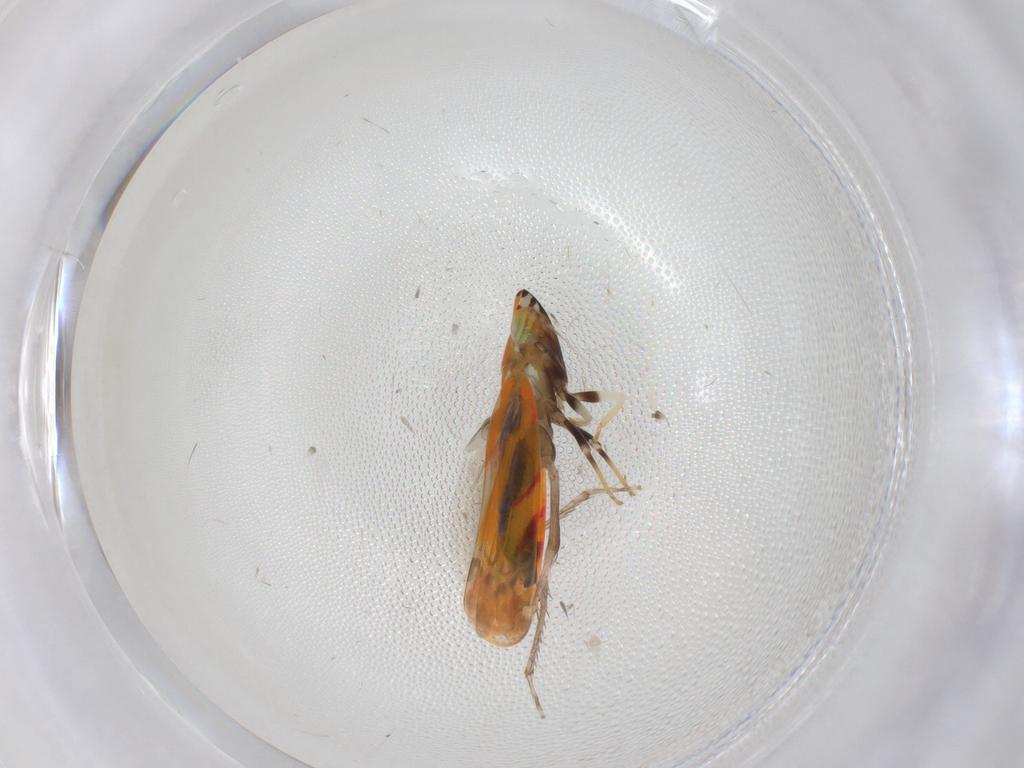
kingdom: Animalia
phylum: Arthropoda
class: Insecta
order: Hemiptera
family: Cicadellidae
